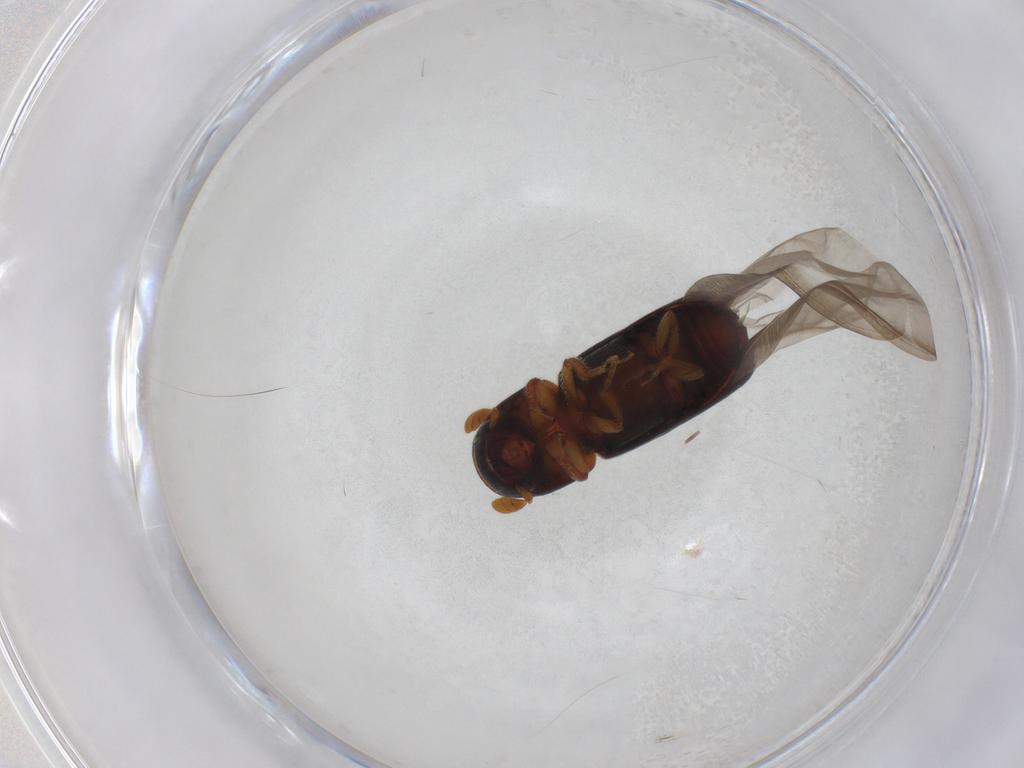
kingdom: Animalia
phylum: Arthropoda
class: Insecta
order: Coleoptera
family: Curculionidae
